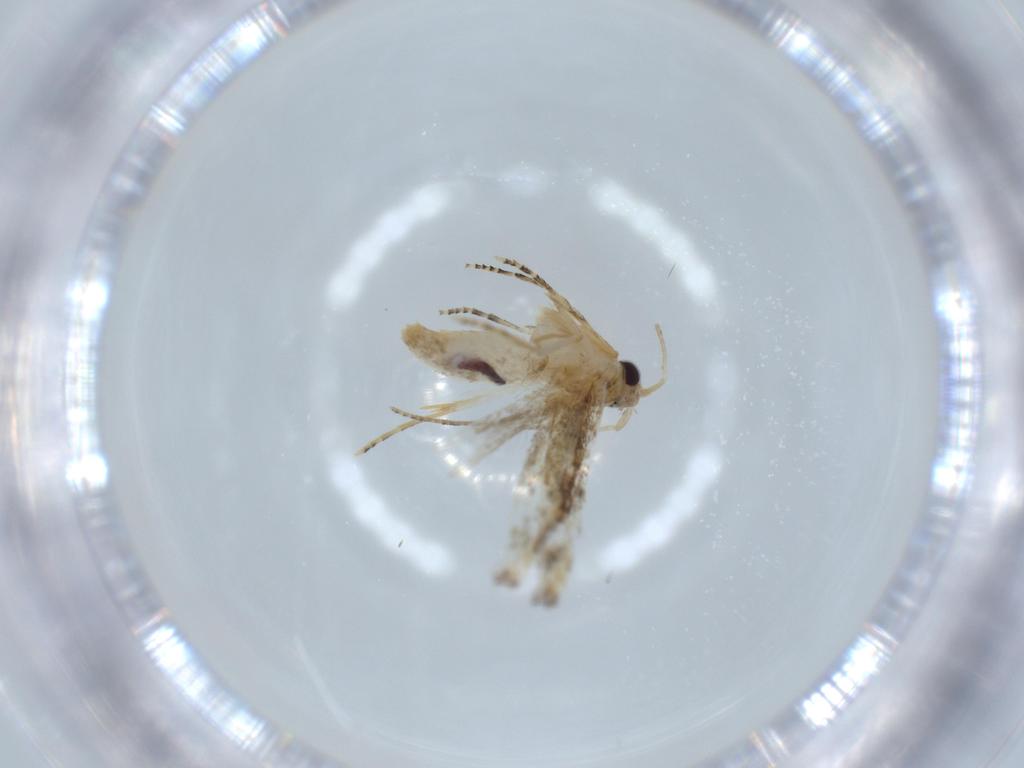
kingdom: Animalia
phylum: Arthropoda
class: Insecta
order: Lepidoptera
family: Bucculatricidae
